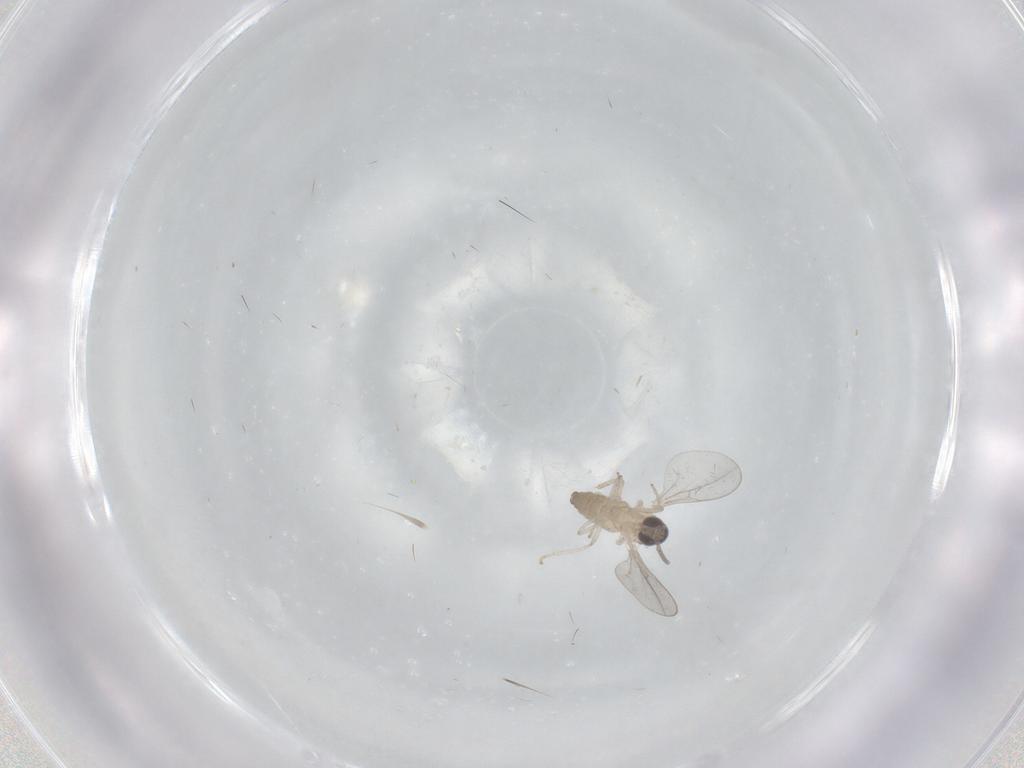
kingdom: Animalia
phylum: Arthropoda
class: Insecta
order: Diptera
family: Cecidomyiidae
